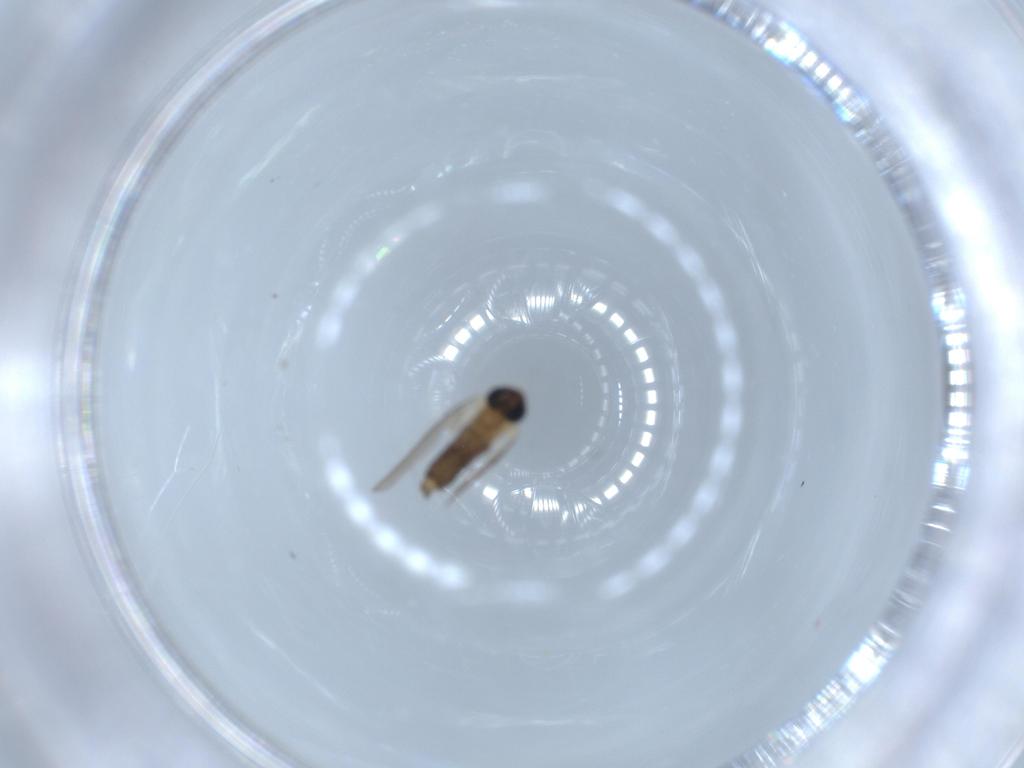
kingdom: Animalia
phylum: Arthropoda
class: Insecta
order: Diptera
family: Psychodidae
